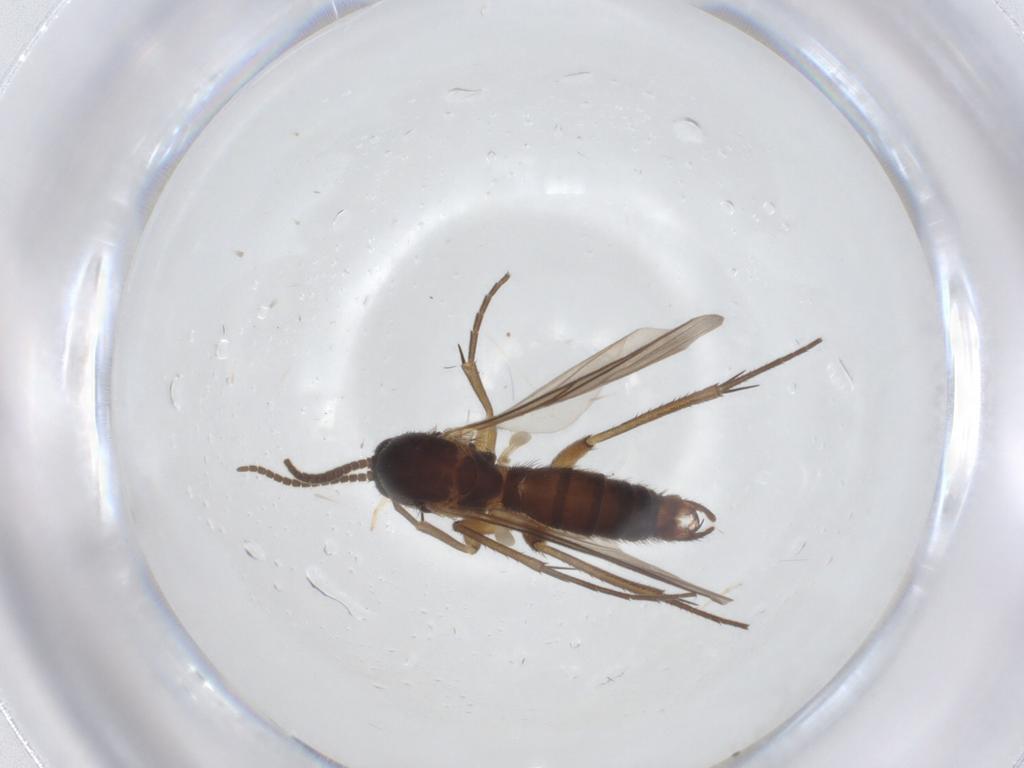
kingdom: Animalia
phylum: Arthropoda
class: Insecta
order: Diptera
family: Mycetophilidae
